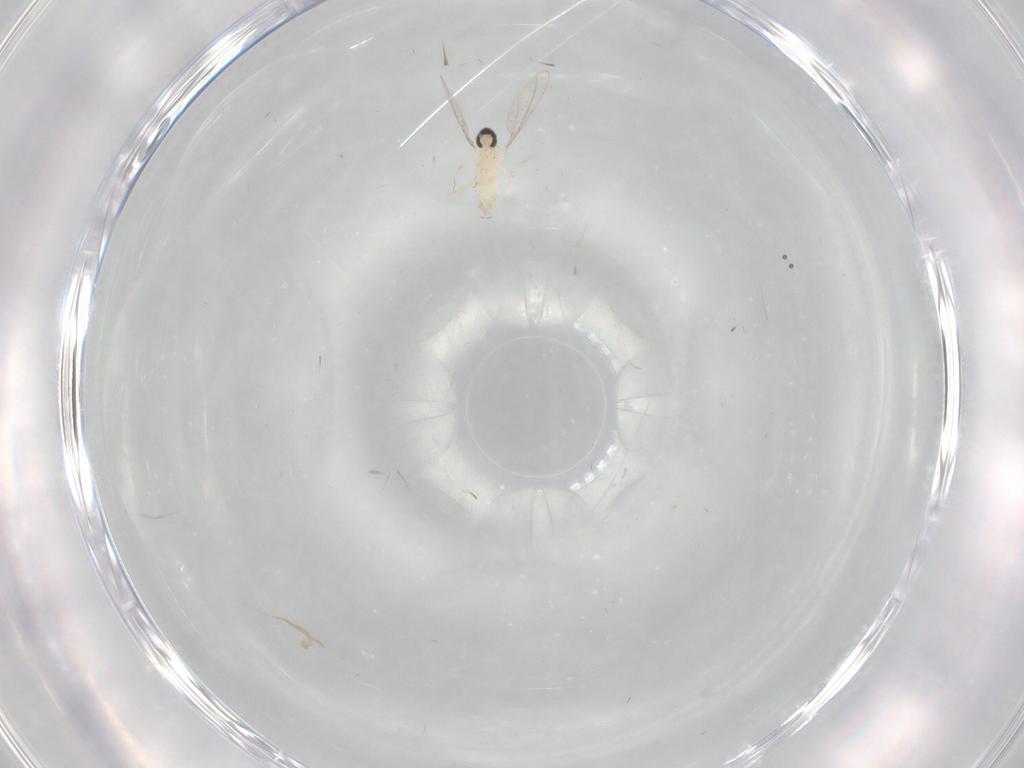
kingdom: Animalia
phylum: Arthropoda
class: Insecta
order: Diptera
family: Cecidomyiidae
